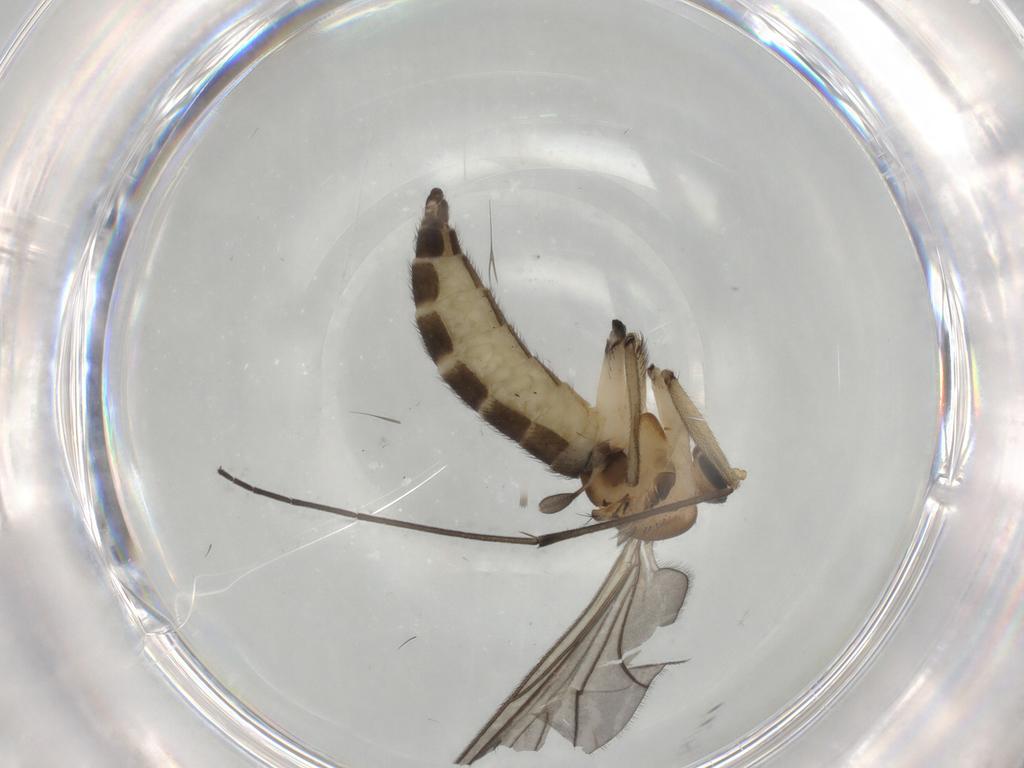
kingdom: Animalia
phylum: Arthropoda
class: Insecta
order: Diptera
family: Sciaridae
